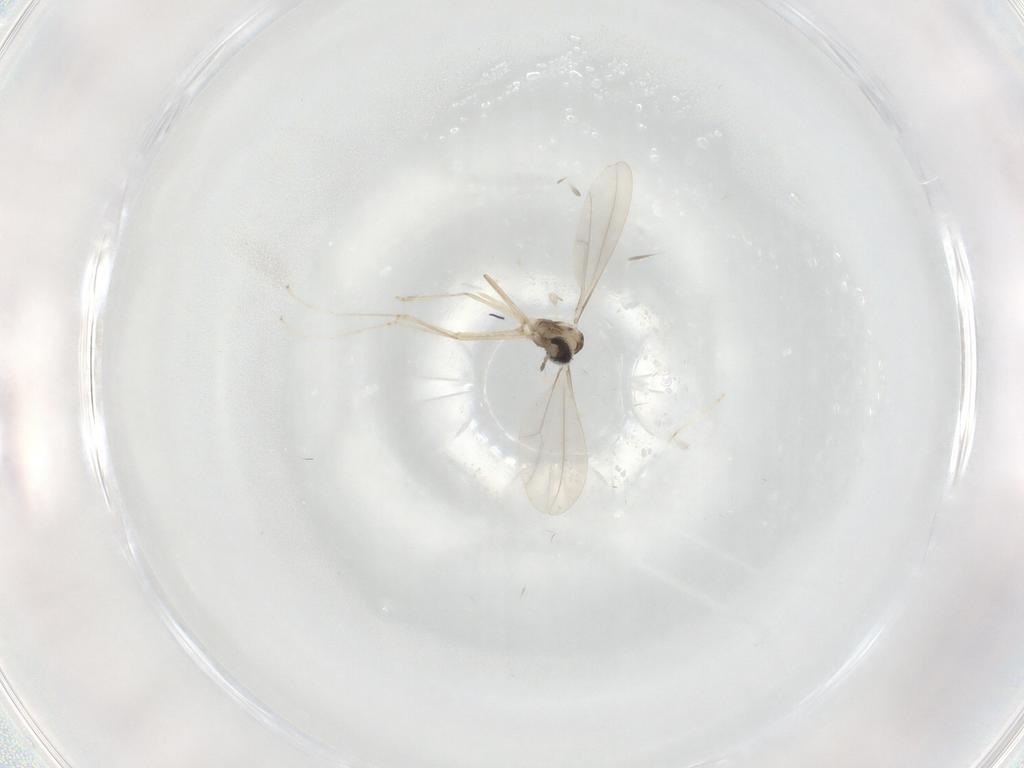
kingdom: Animalia
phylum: Arthropoda
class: Insecta
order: Diptera
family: Cecidomyiidae
